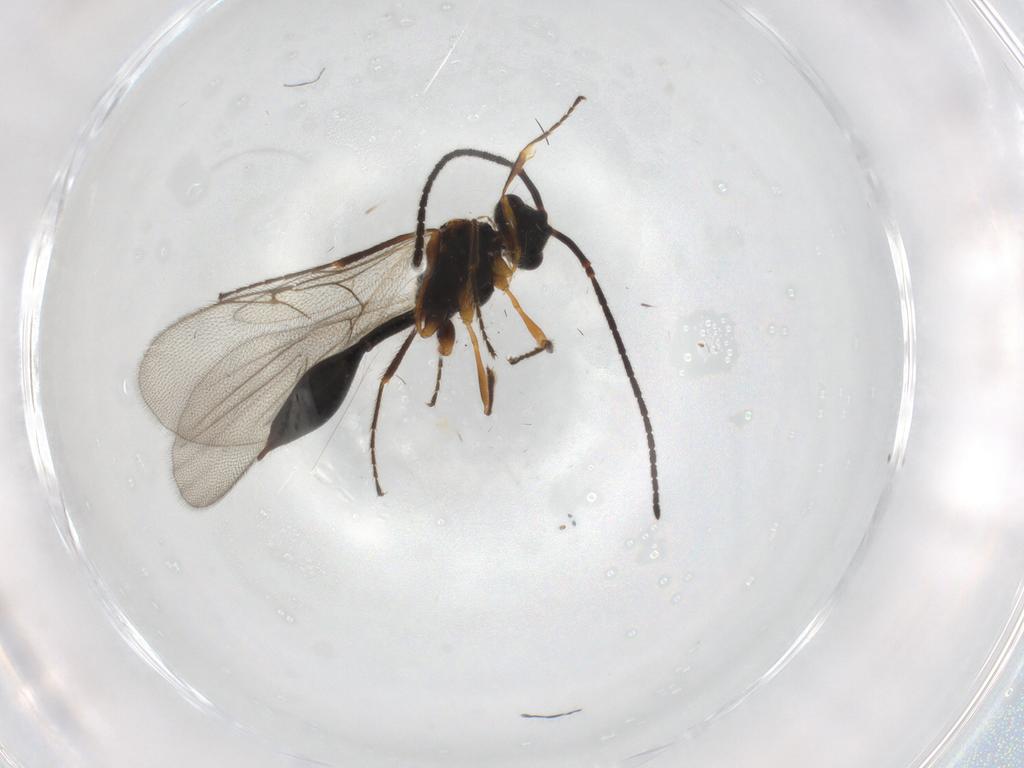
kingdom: Animalia
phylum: Arthropoda
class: Insecta
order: Hymenoptera
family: Diapriidae
